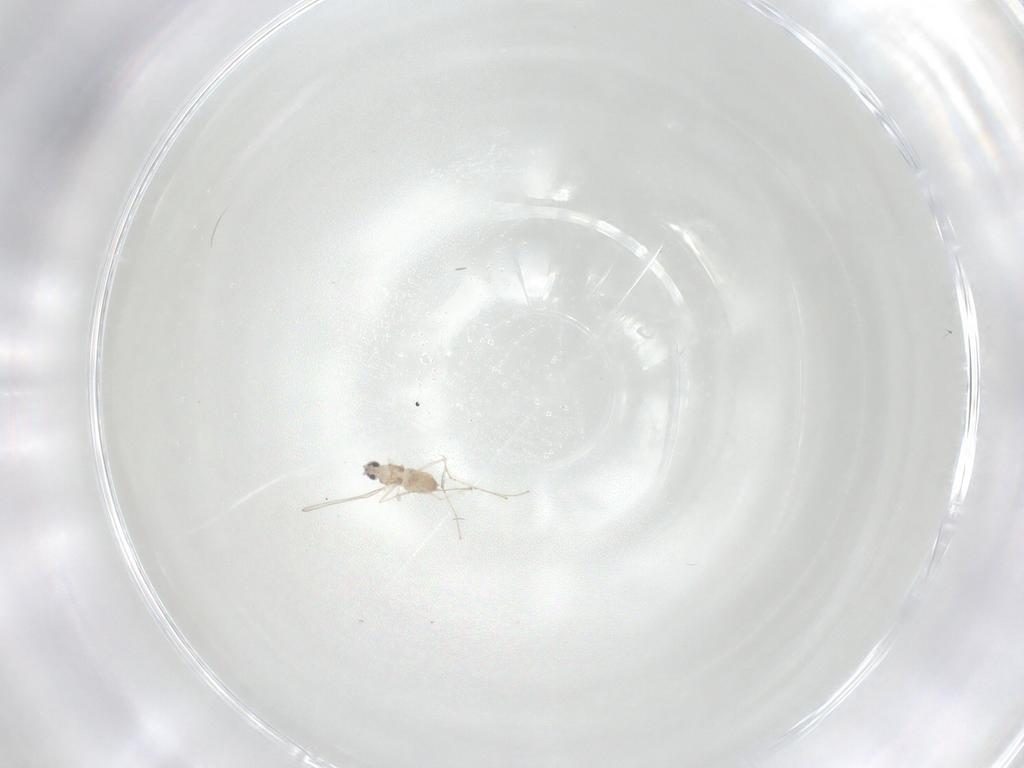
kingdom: Animalia
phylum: Arthropoda
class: Insecta
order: Diptera
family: Cecidomyiidae
